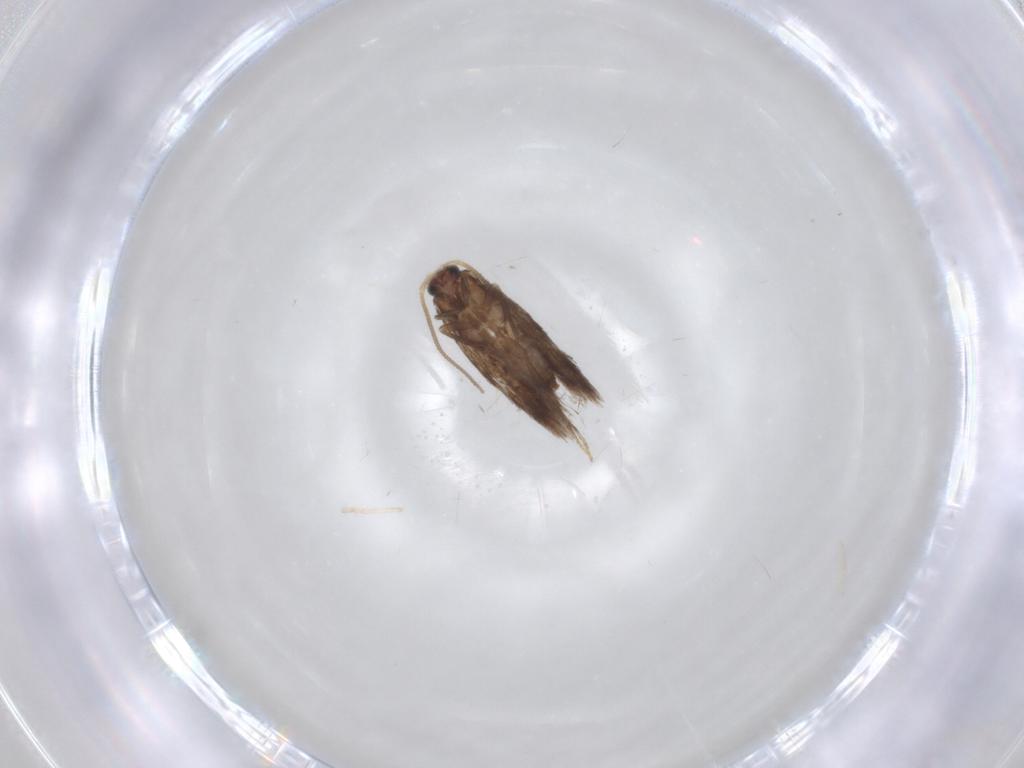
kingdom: Animalia
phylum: Arthropoda
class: Insecta
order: Lepidoptera
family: Nepticulidae
